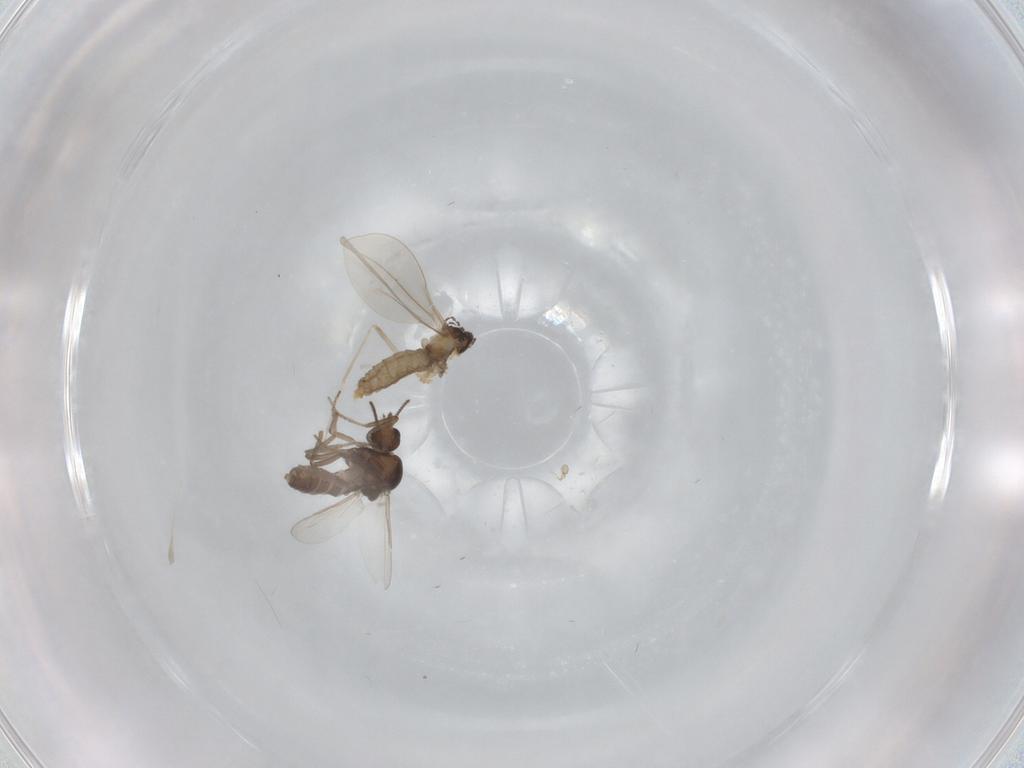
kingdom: Animalia
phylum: Arthropoda
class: Insecta
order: Diptera
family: Ceratopogonidae
